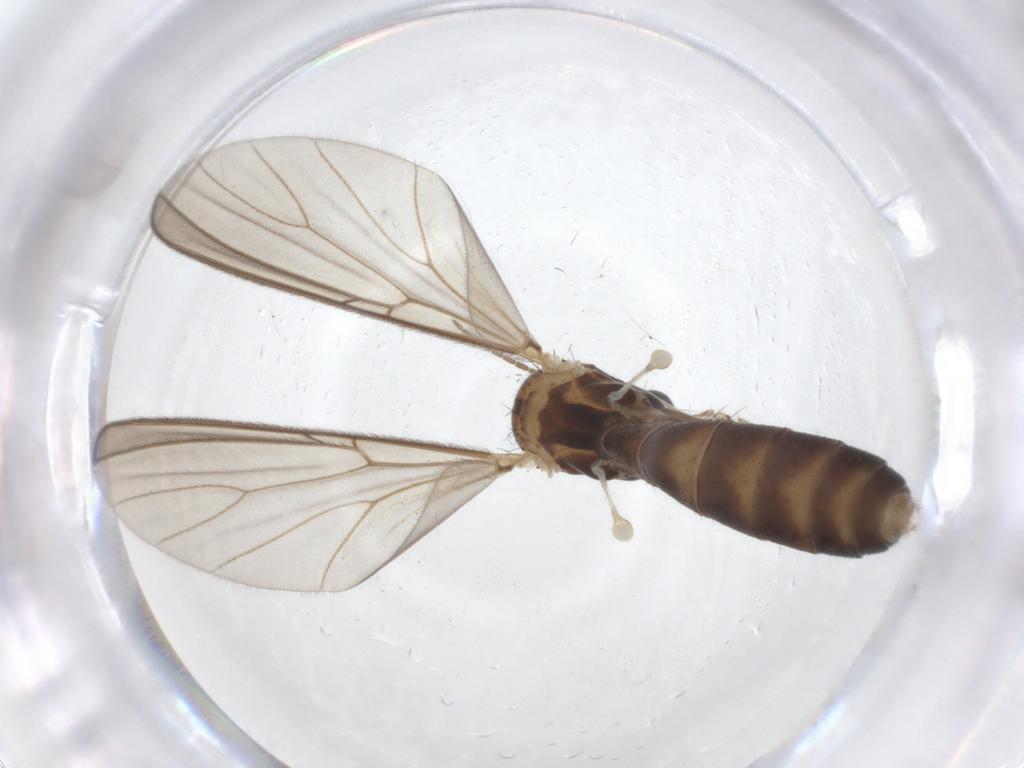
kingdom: Animalia
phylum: Arthropoda
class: Insecta
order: Diptera
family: Mycetophilidae
